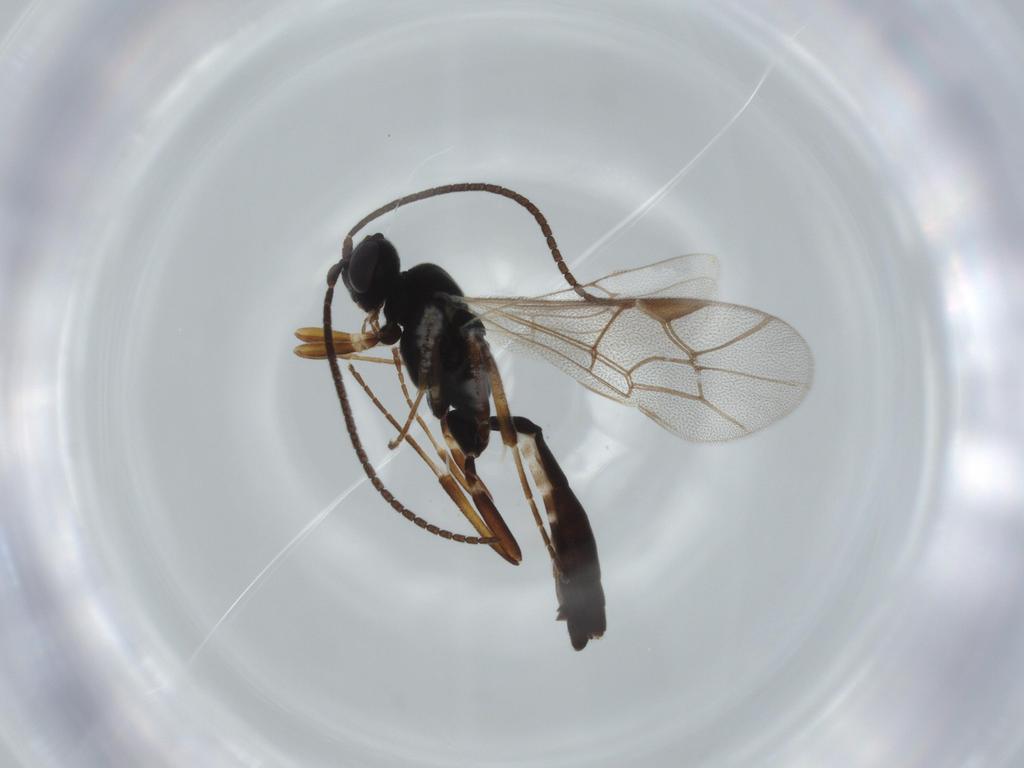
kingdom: Animalia
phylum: Arthropoda
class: Insecta
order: Hymenoptera
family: Ichneumonidae
